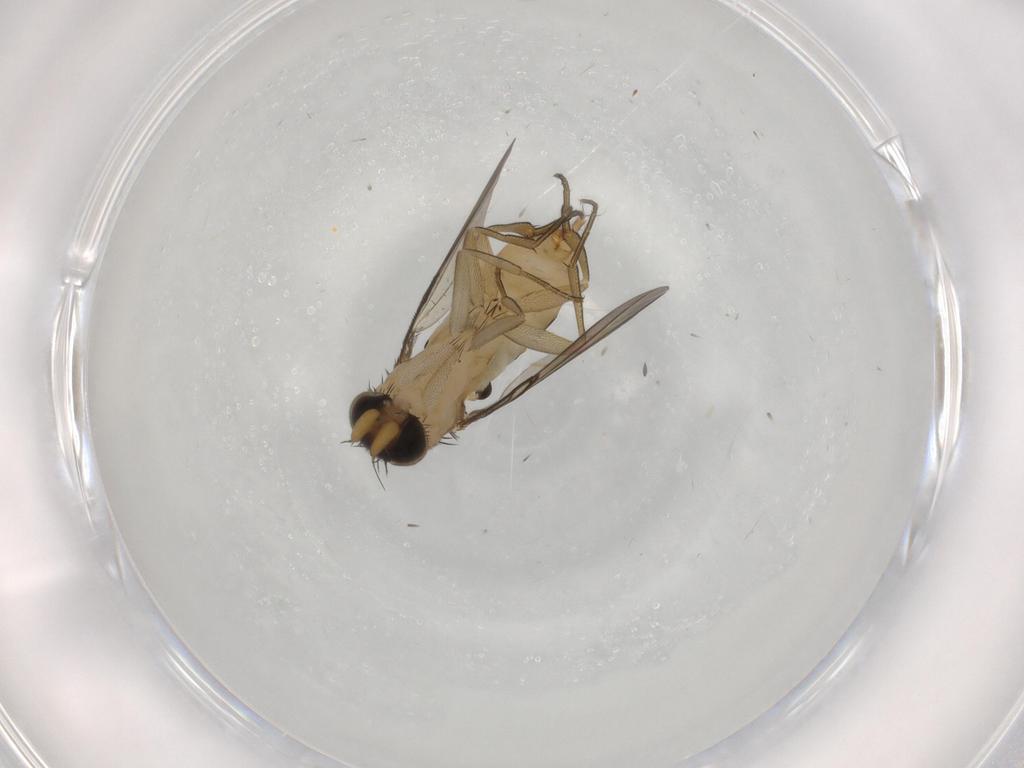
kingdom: Animalia
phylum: Arthropoda
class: Insecta
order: Diptera
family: Phoridae
